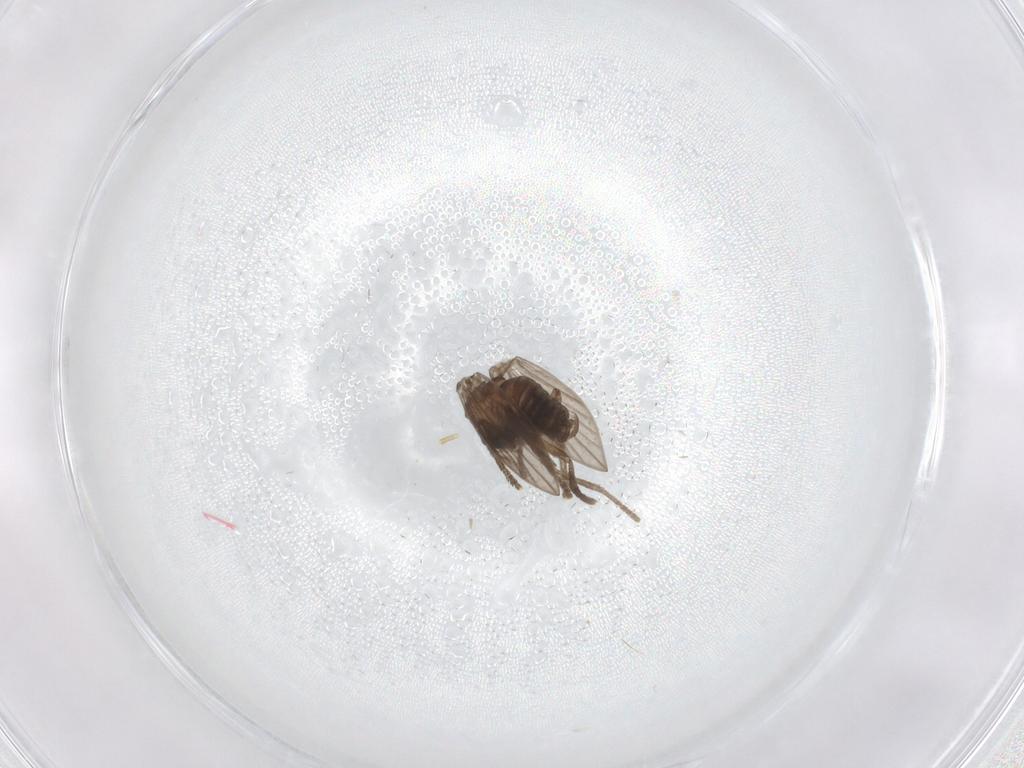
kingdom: Animalia
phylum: Arthropoda
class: Insecta
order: Diptera
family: Psychodidae
